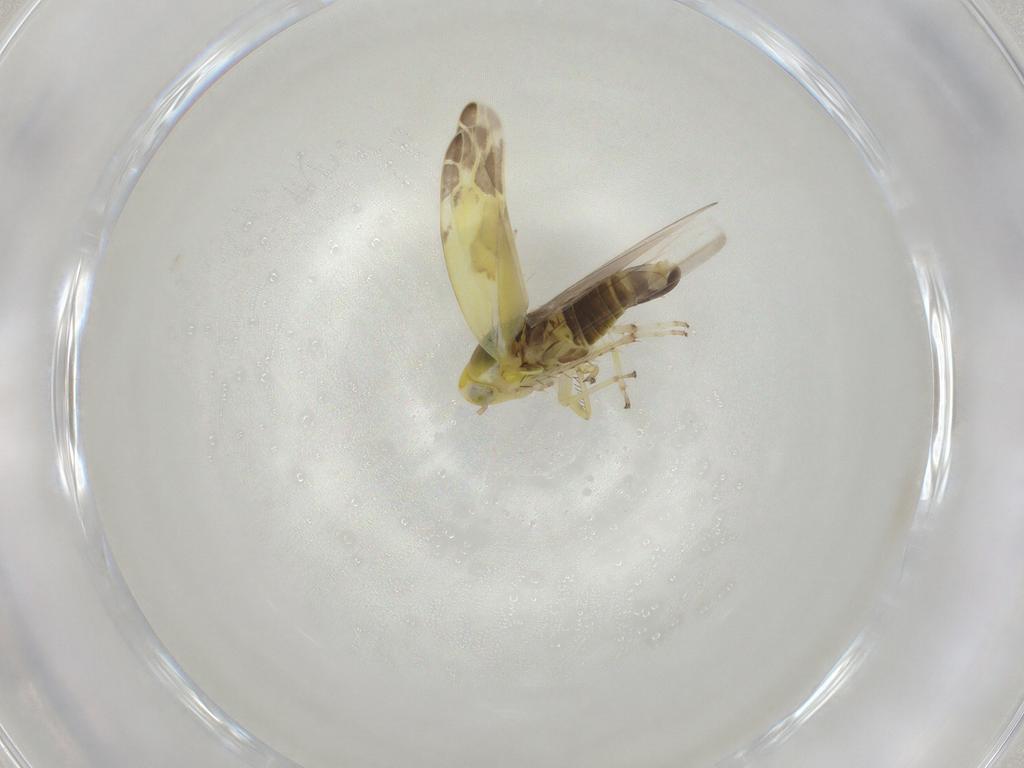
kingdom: Animalia
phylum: Arthropoda
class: Insecta
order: Hemiptera
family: Cicadellidae
